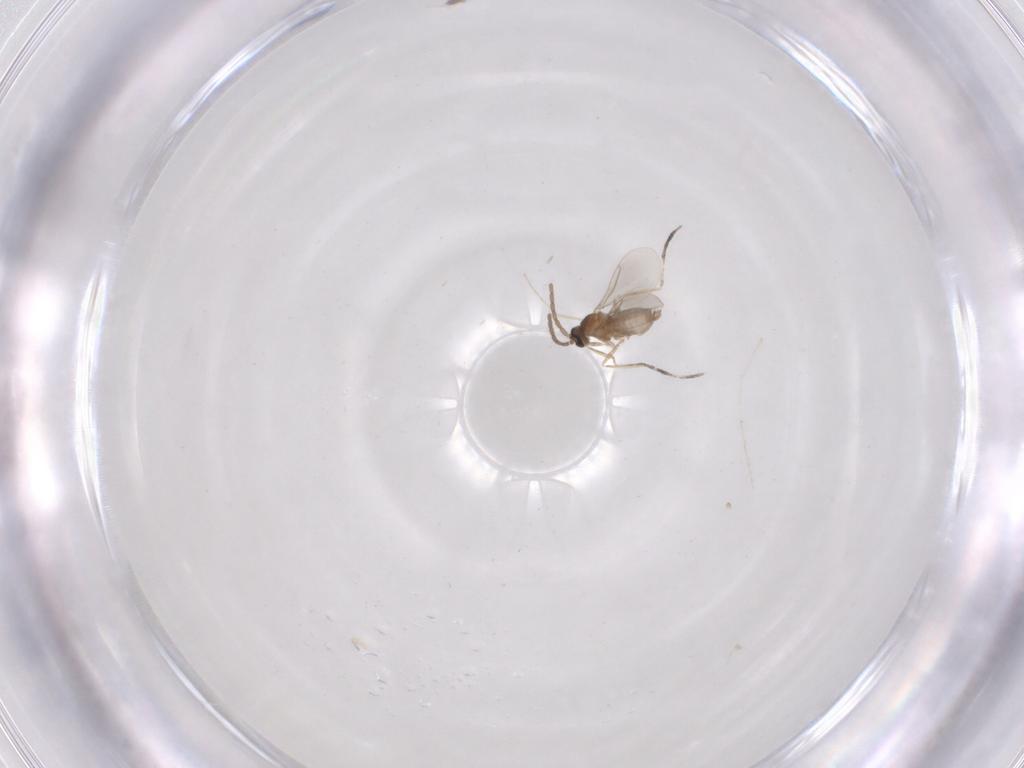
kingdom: Animalia
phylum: Arthropoda
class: Insecta
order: Diptera
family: Cecidomyiidae
